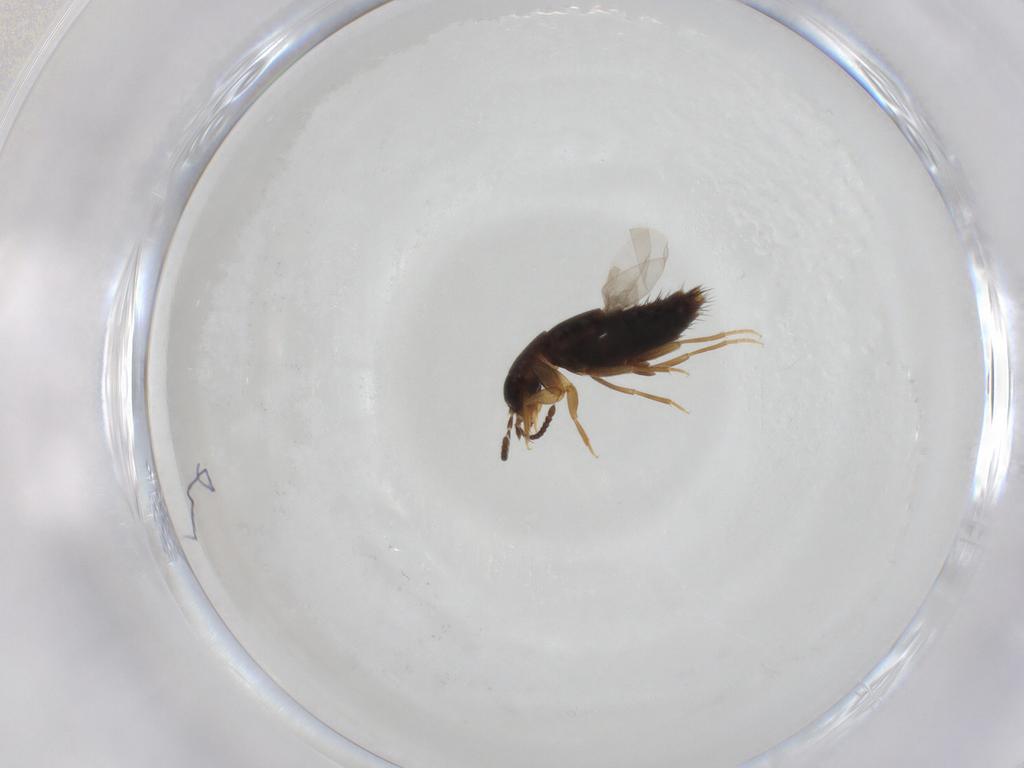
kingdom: Animalia
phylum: Arthropoda
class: Insecta
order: Coleoptera
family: Staphylinidae
